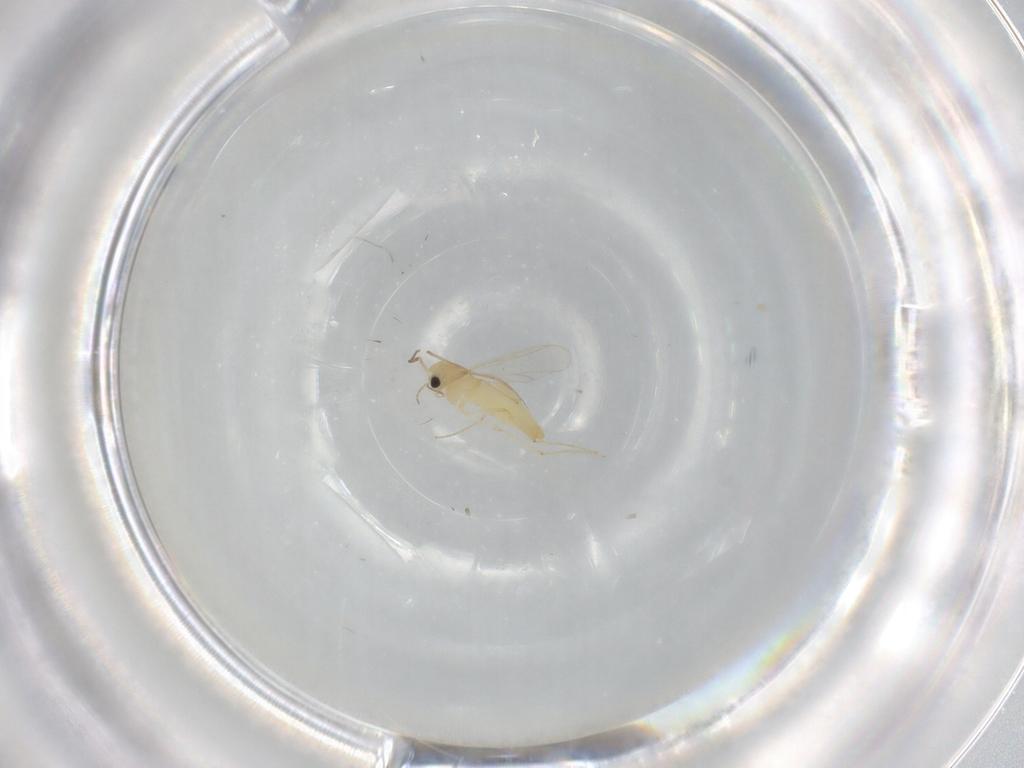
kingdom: Animalia
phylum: Arthropoda
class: Insecta
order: Diptera
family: Chironomidae
